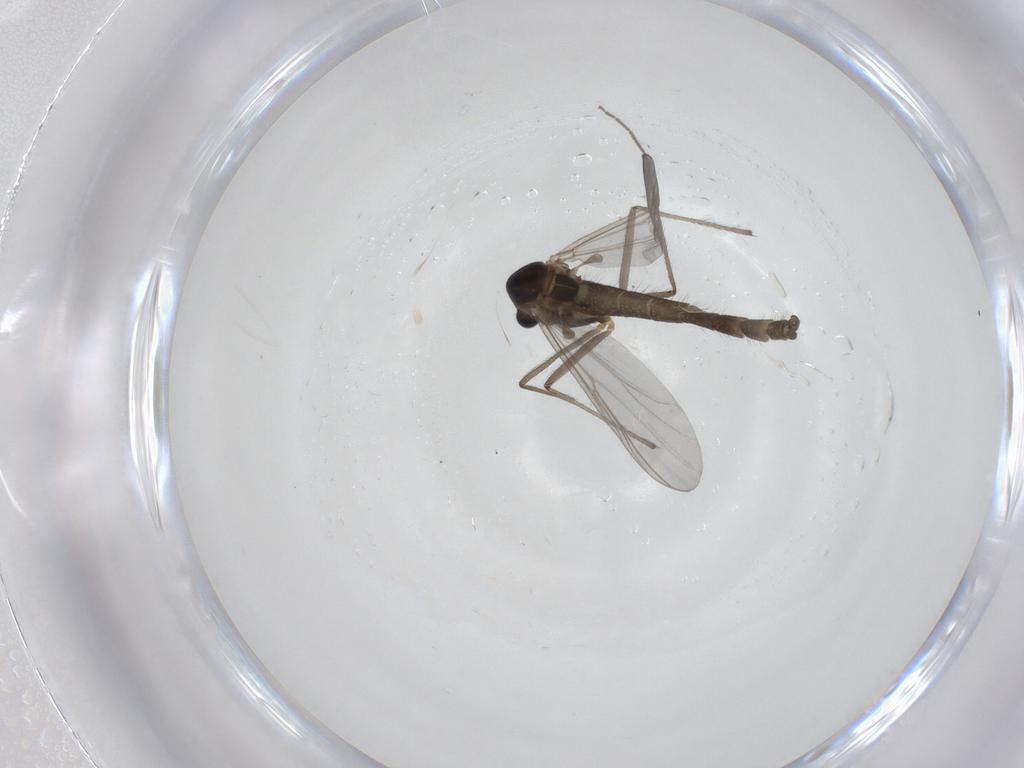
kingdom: Animalia
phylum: Arthropoda
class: Insecta
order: Diptera
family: Chironomidae
